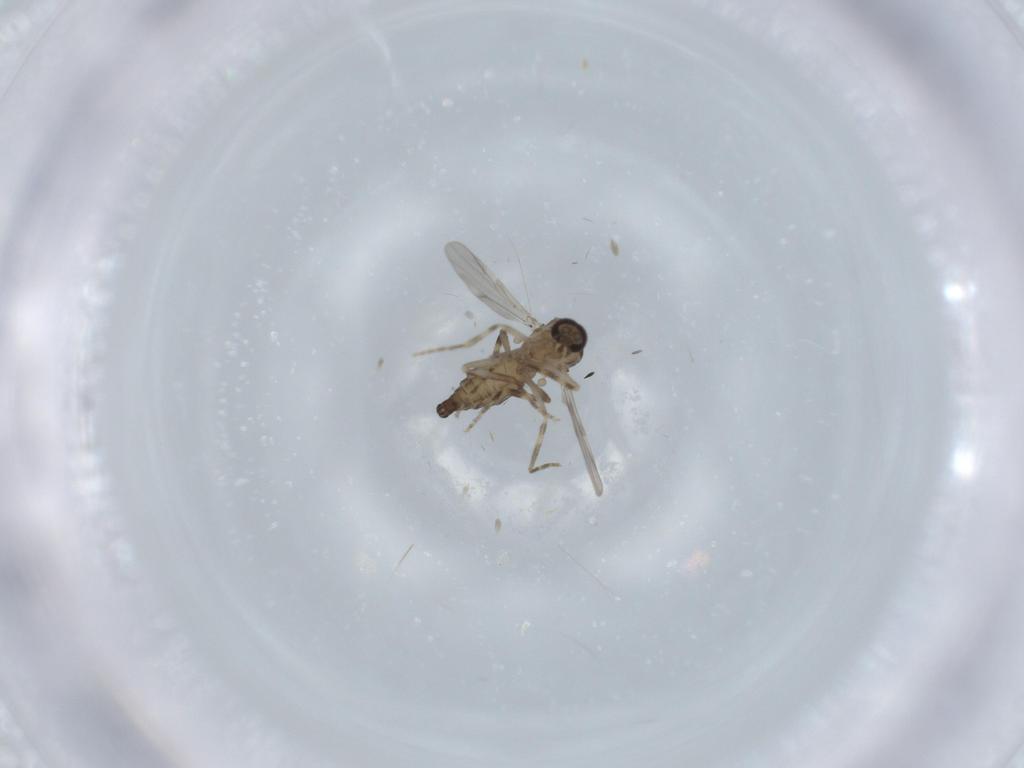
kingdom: Animalia
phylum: Arthropoda
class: Insecta
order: Diptera
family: Ceratopogonidae
